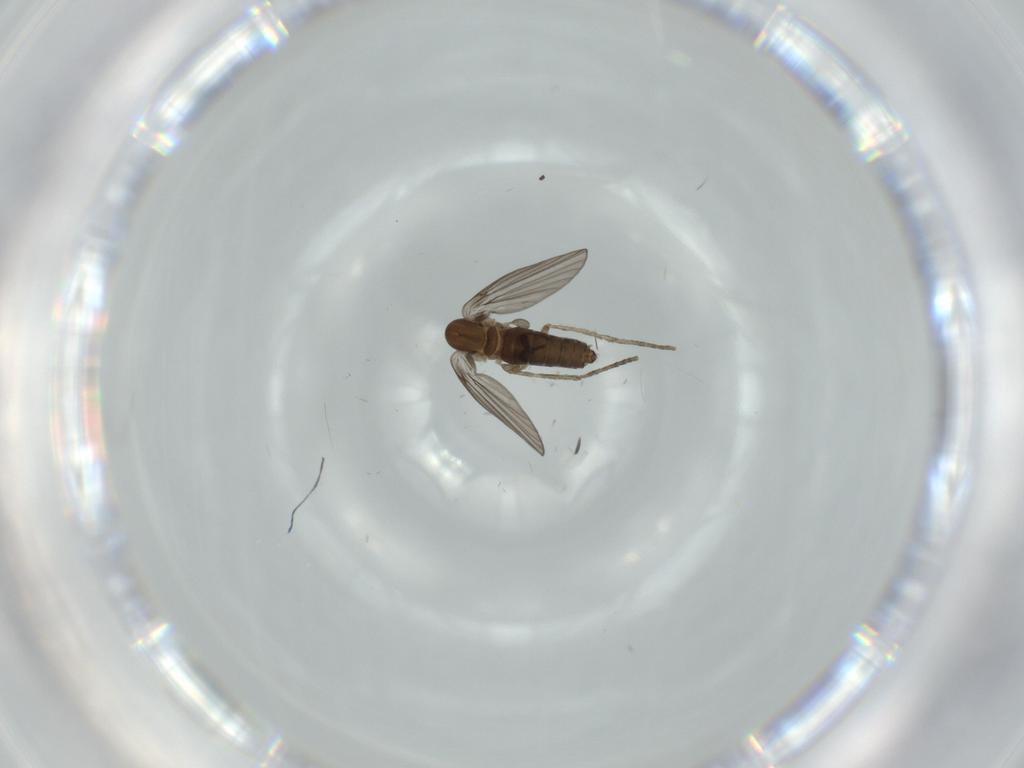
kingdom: Animalia
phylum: Arthropoda
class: Insecta
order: Diptera
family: Psychodidae
